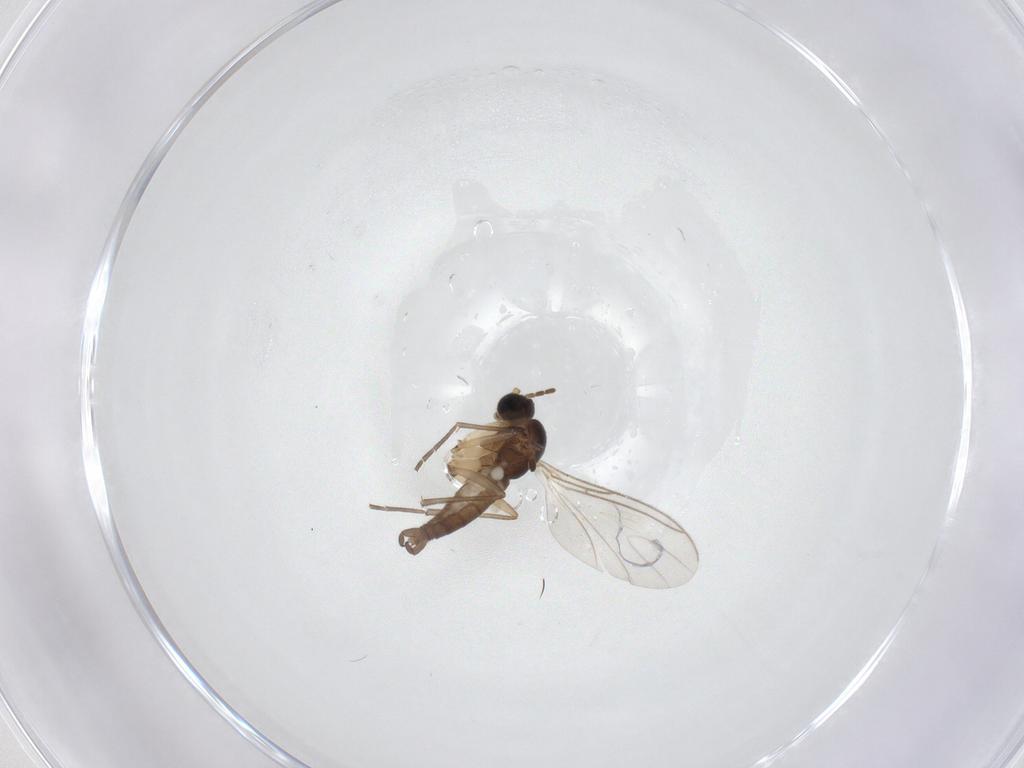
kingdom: Animalia
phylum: Arthropoda
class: Insecta
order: Diptera
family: Sciaridae
